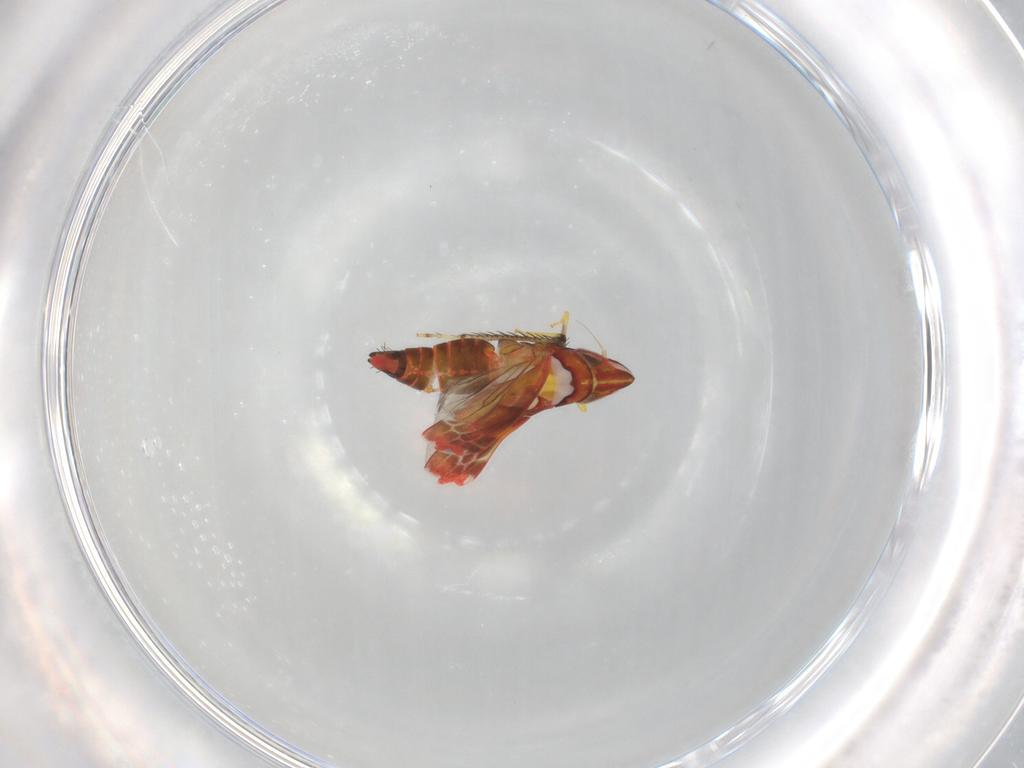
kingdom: Animalia
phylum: Arthropoda
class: Insecta
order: Hemiptera
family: Cicadellidae
